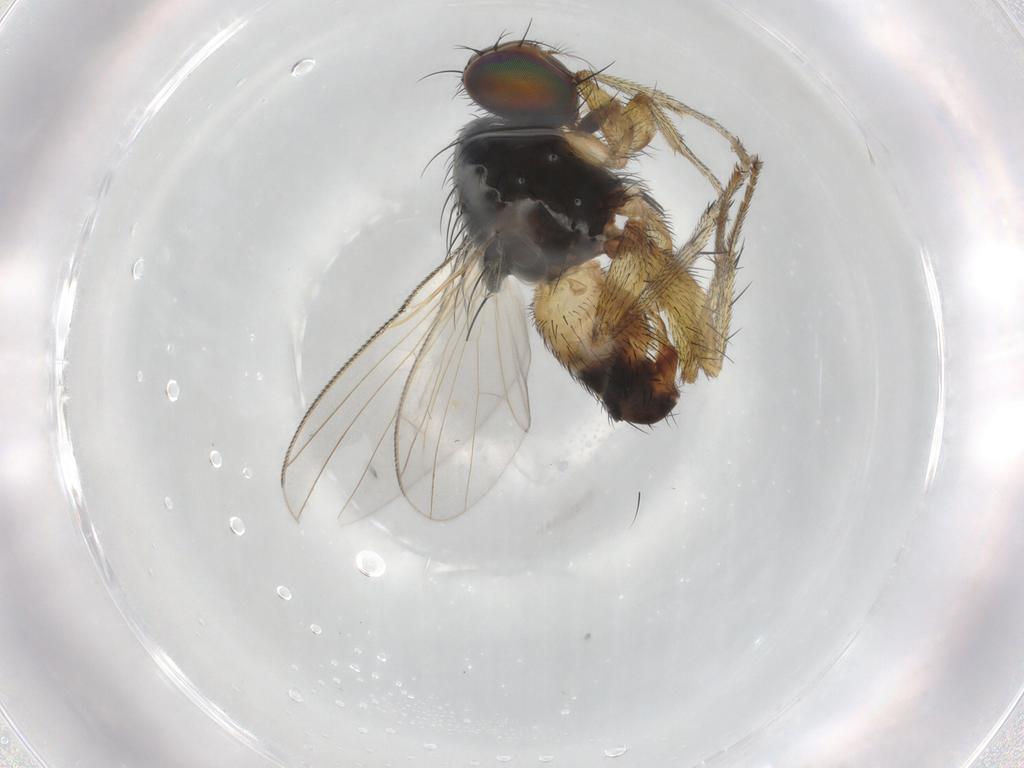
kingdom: Animalia
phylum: Arthropoda
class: Insecta
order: Diptera
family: Muscidae
